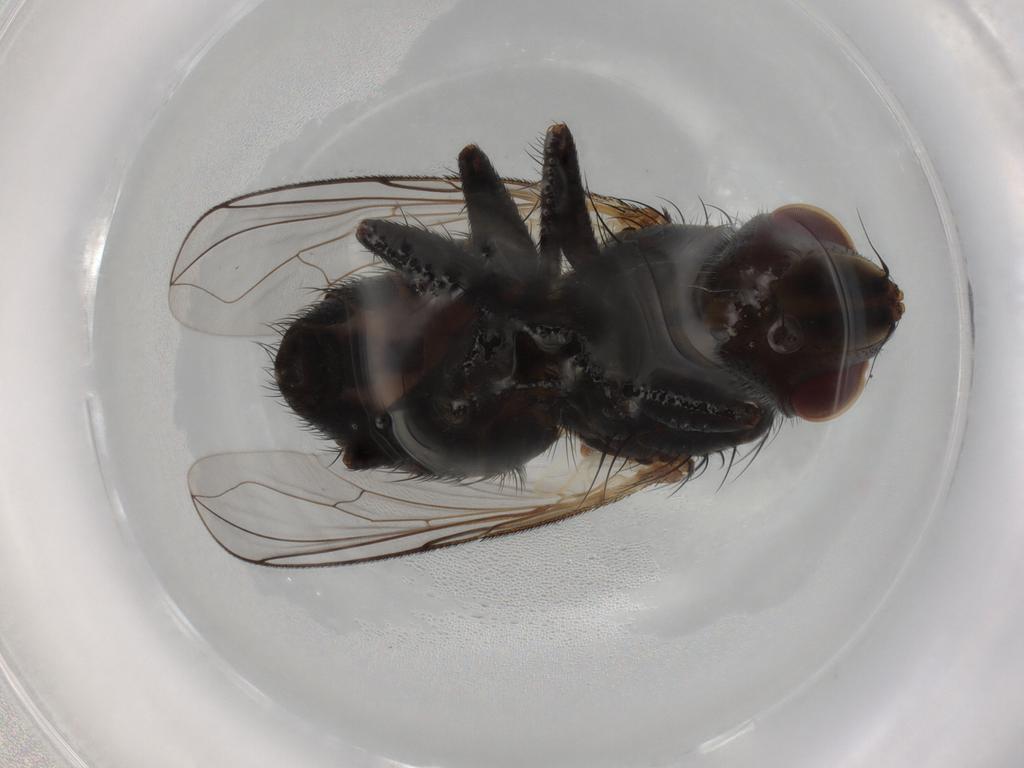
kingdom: Animalia
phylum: Arthropoda
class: Insecta
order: Diptera
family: Tachinidae
